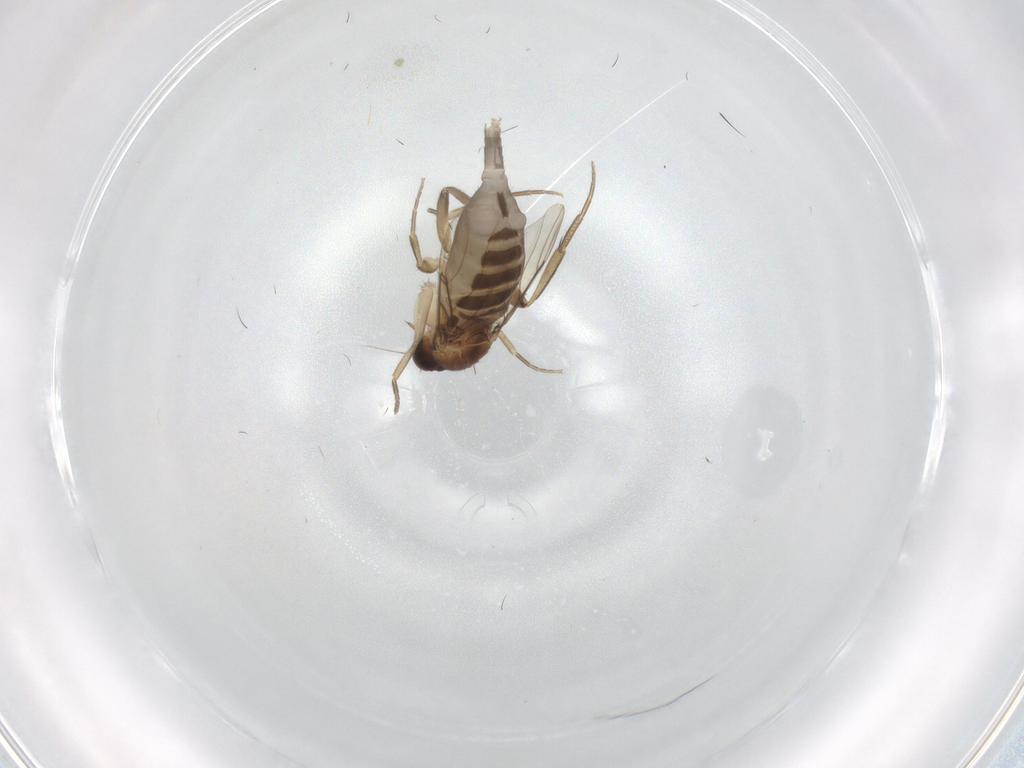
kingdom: Animalia
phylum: Arthropoda
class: Insecta
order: Diptera
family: Phoridae
